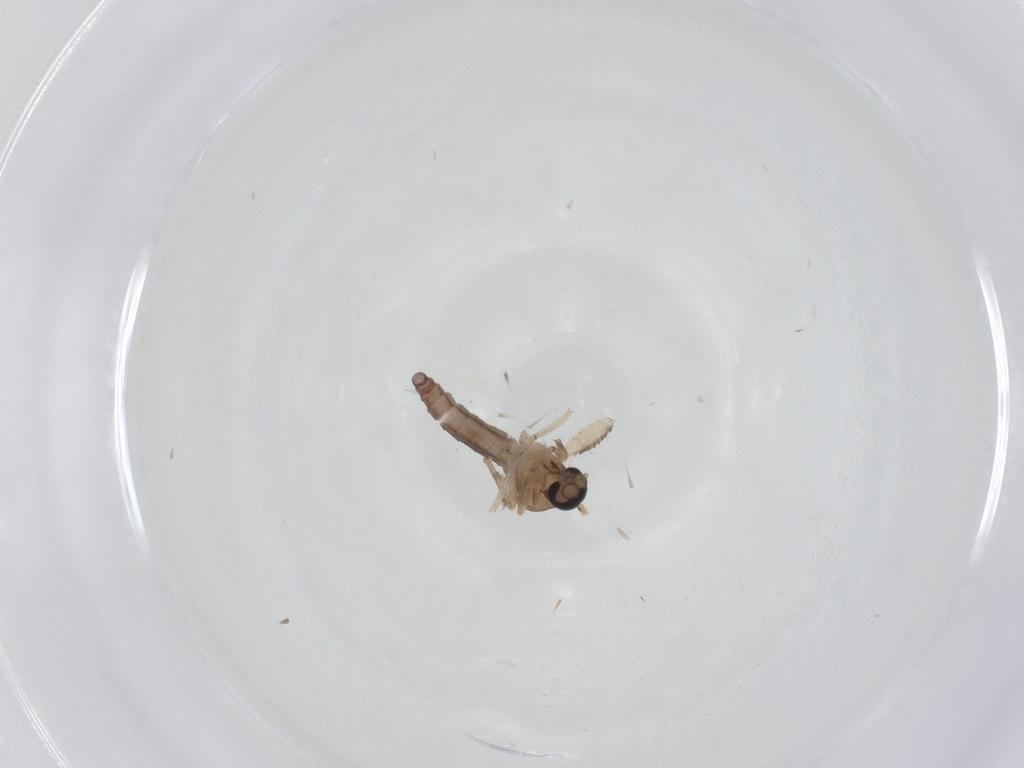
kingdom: Animalia
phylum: Arthropoda
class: Insecta
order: Diptera
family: Ceratopogonidae
